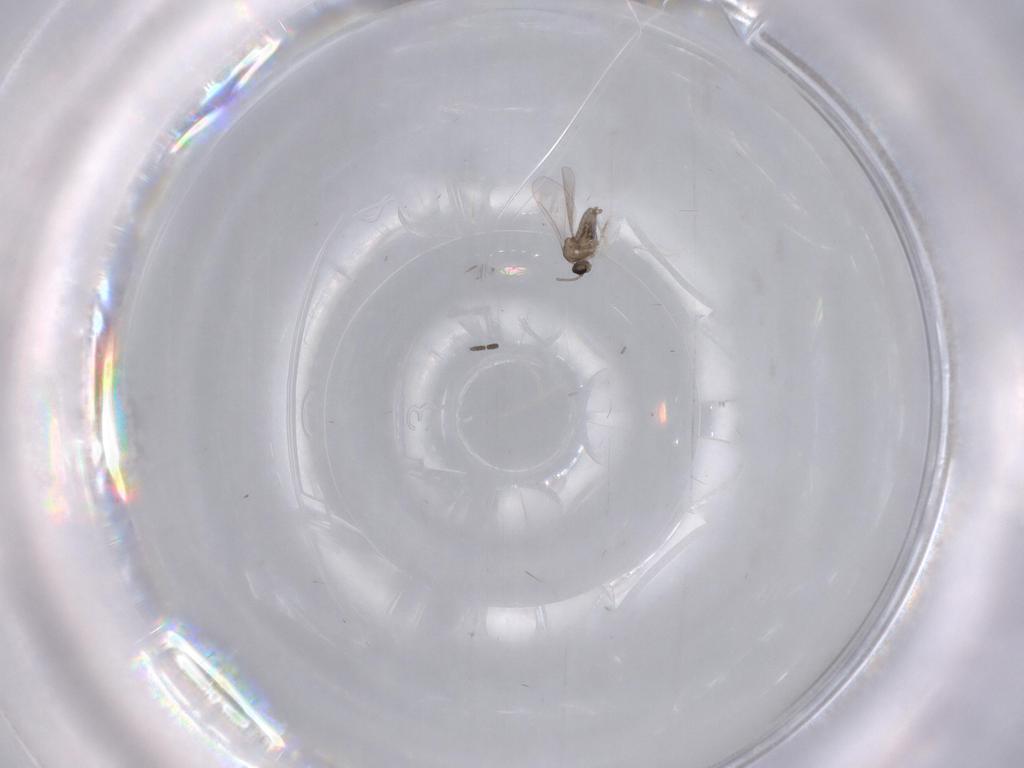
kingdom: Animalia
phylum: Arthropoda
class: Insecta
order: Diptera
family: Cecidomyiidae
